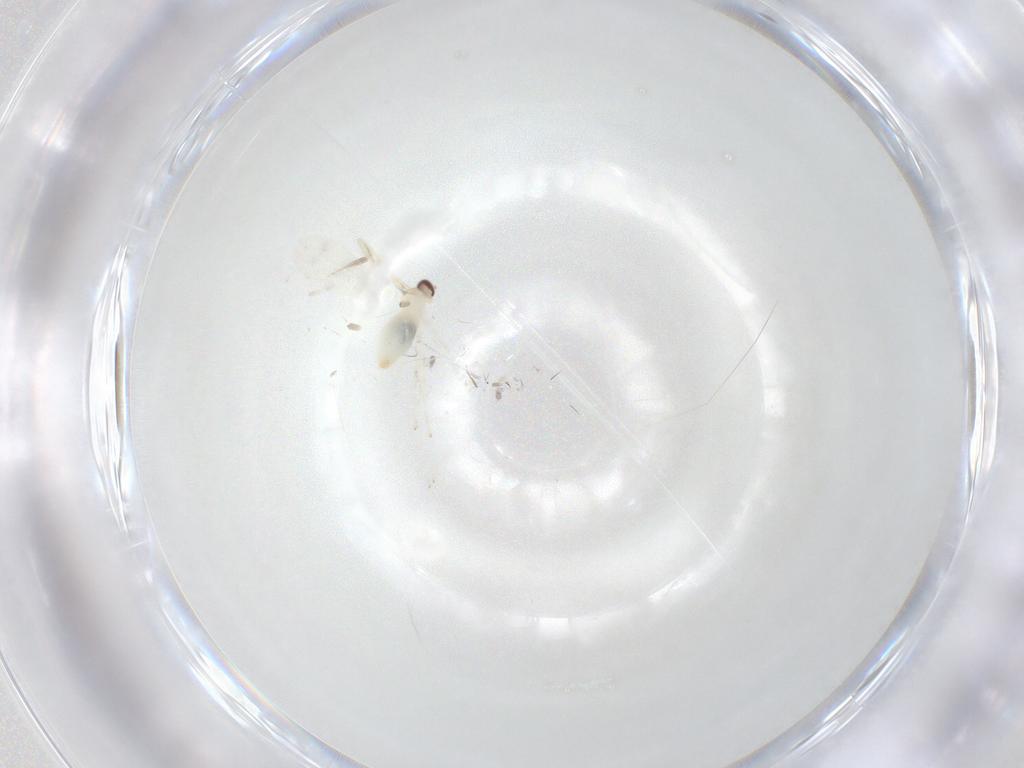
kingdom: Animalia
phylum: Arthropoda
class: Insecta
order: Diptera
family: Cecidomyiidae
